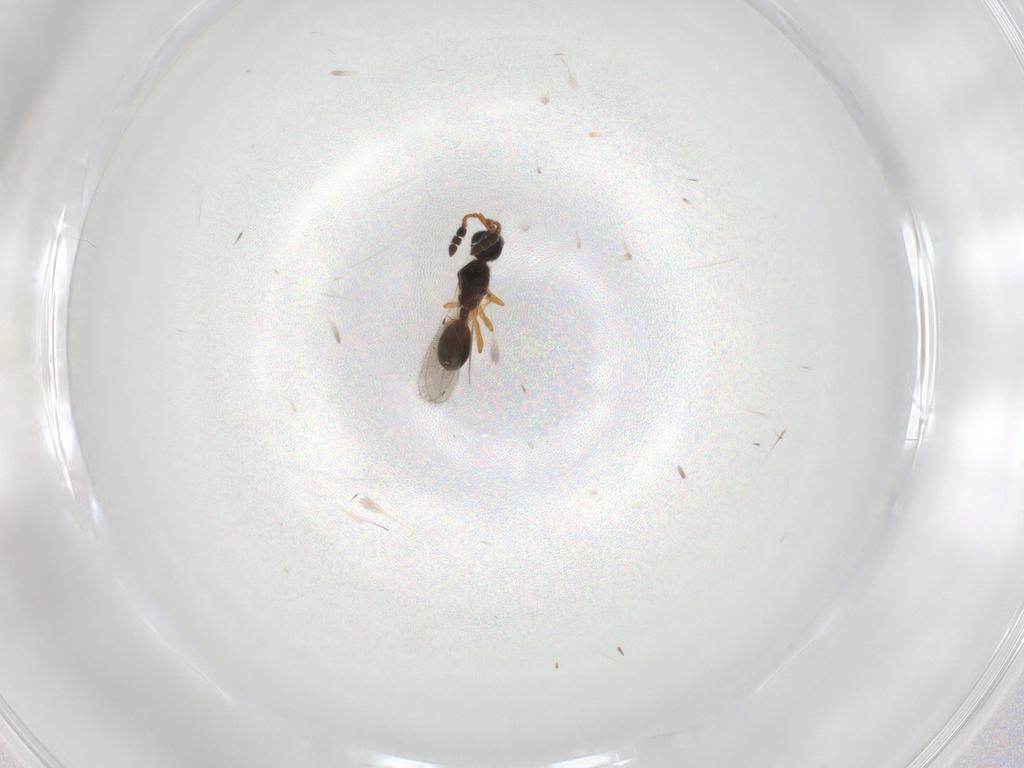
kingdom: Animalia
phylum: Arthropoda
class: Insecta
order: Hymenoptera
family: Diapriidae
